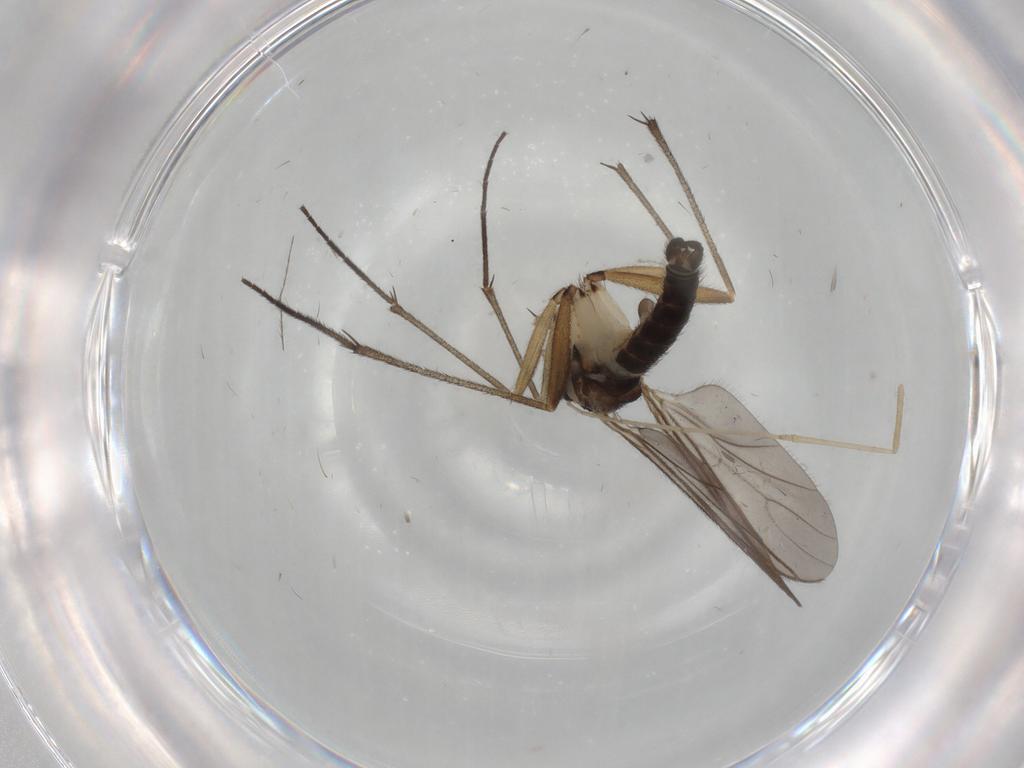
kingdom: Animalia
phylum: Arthropoda
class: Insecta
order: Diptera
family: Cecidomyiidae
